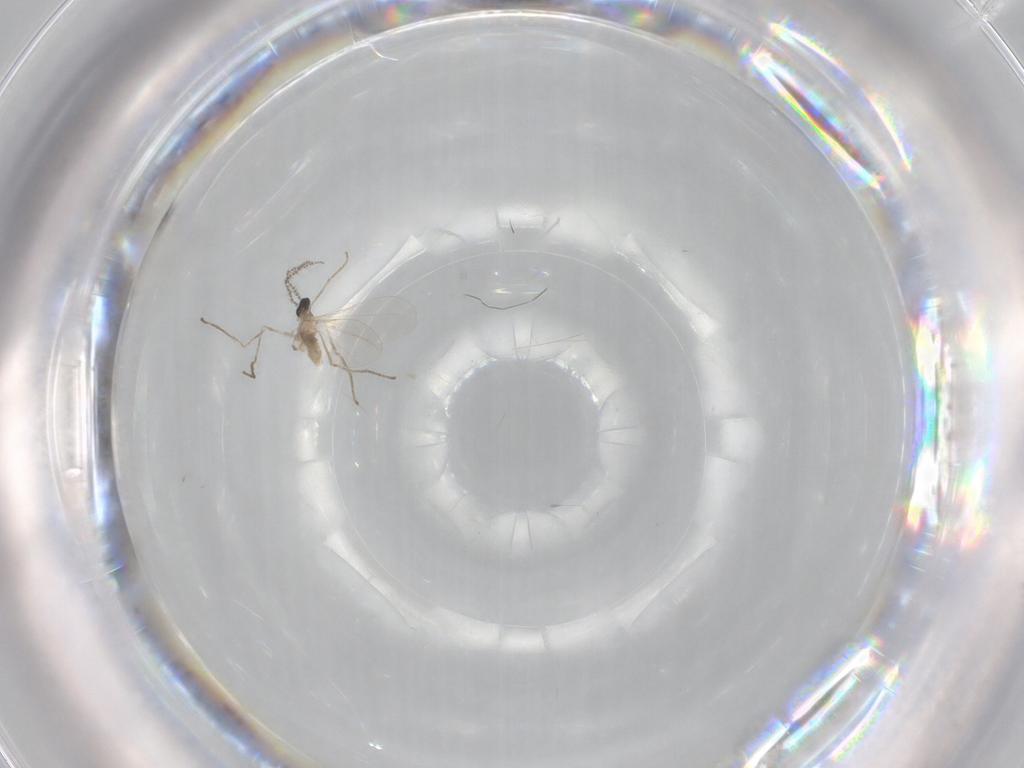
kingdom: Animalia
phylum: Arthropoda
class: Insecta
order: Diptera
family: Cecidomyiidae
